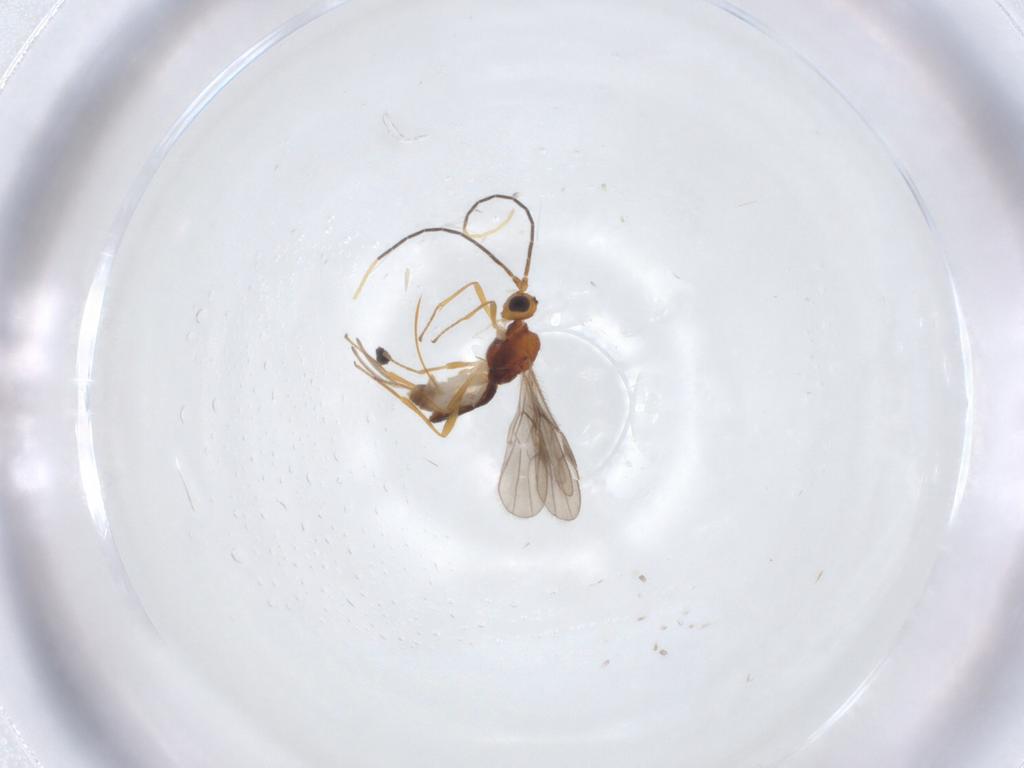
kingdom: Animalia
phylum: Arthropoda
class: Insecta
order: Hymenoptera
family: Braconidae
